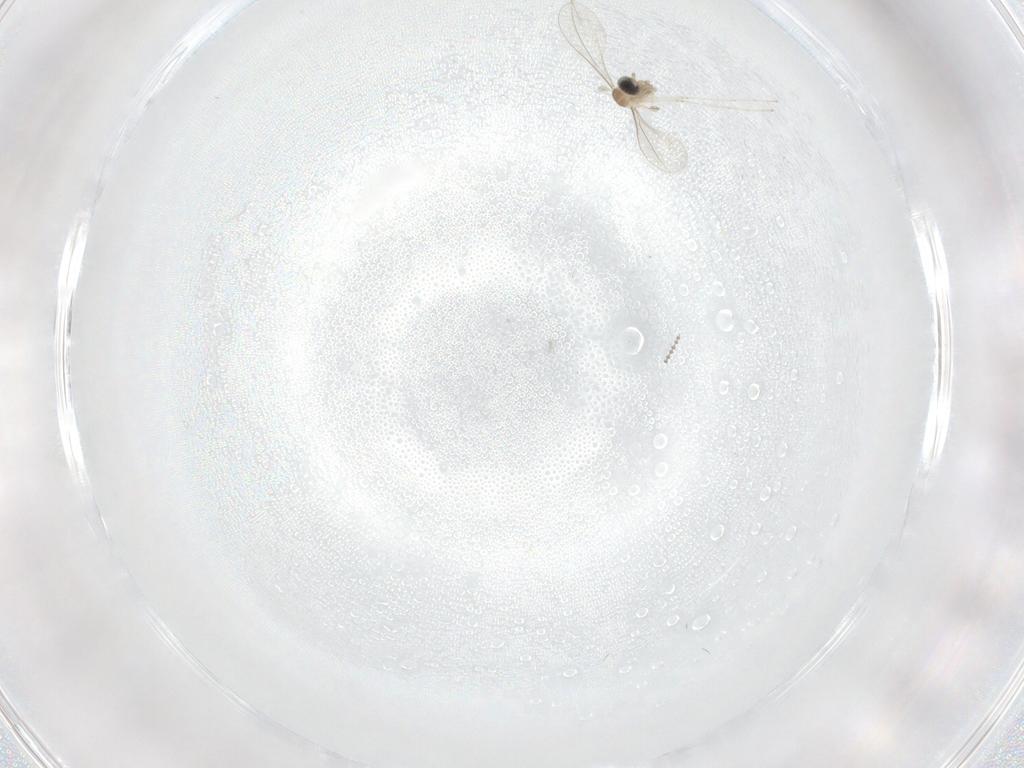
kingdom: Animalia
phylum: Arthropoda
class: Insecta
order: Diptera
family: Cecidomyiidae
